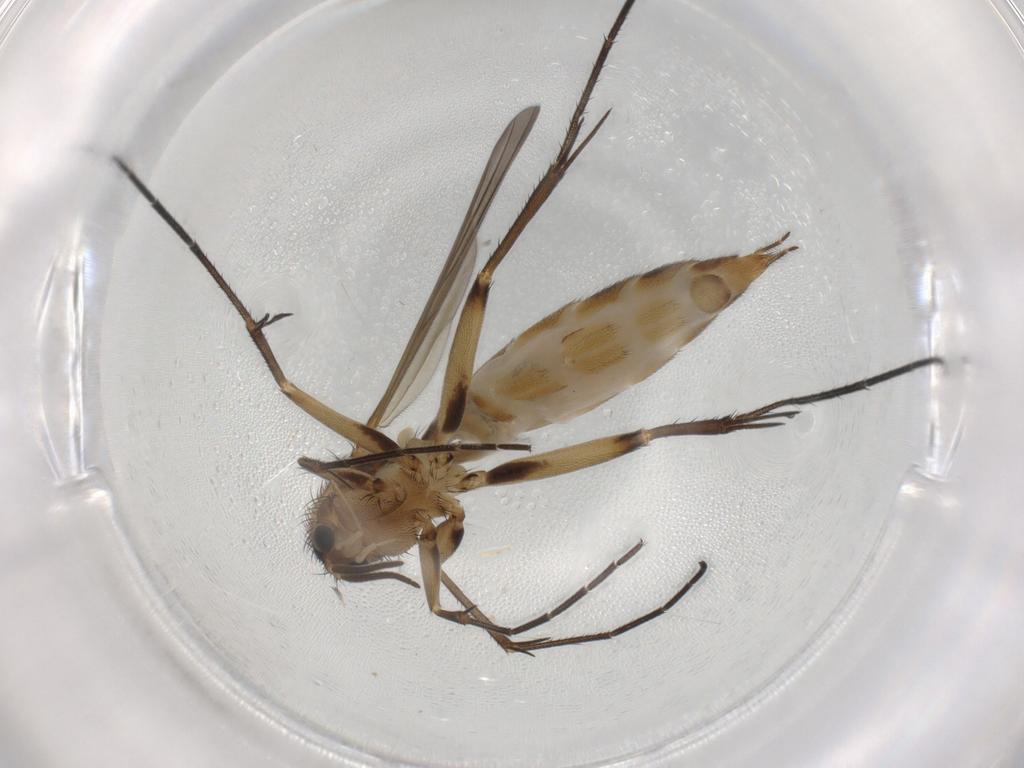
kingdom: Animalia
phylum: Arthropoda
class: Insecta
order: Diptera
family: Mycetophilidae
